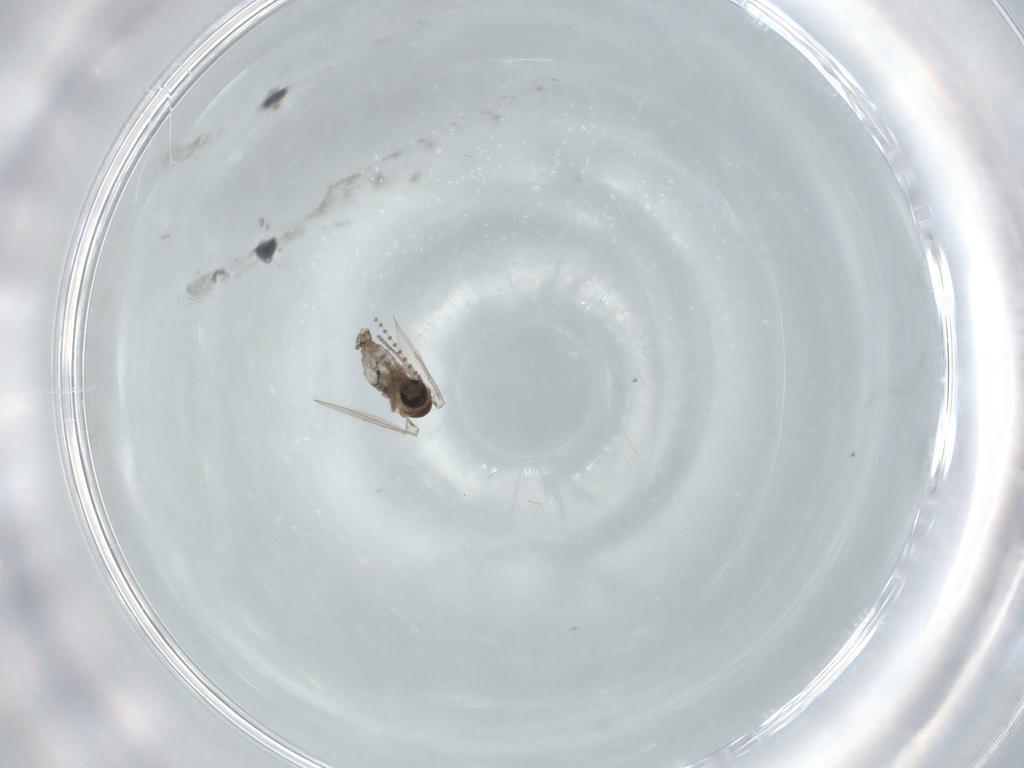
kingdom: Animalia
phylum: Arthropoda
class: Insecta
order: Diptera
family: Psychodidae
